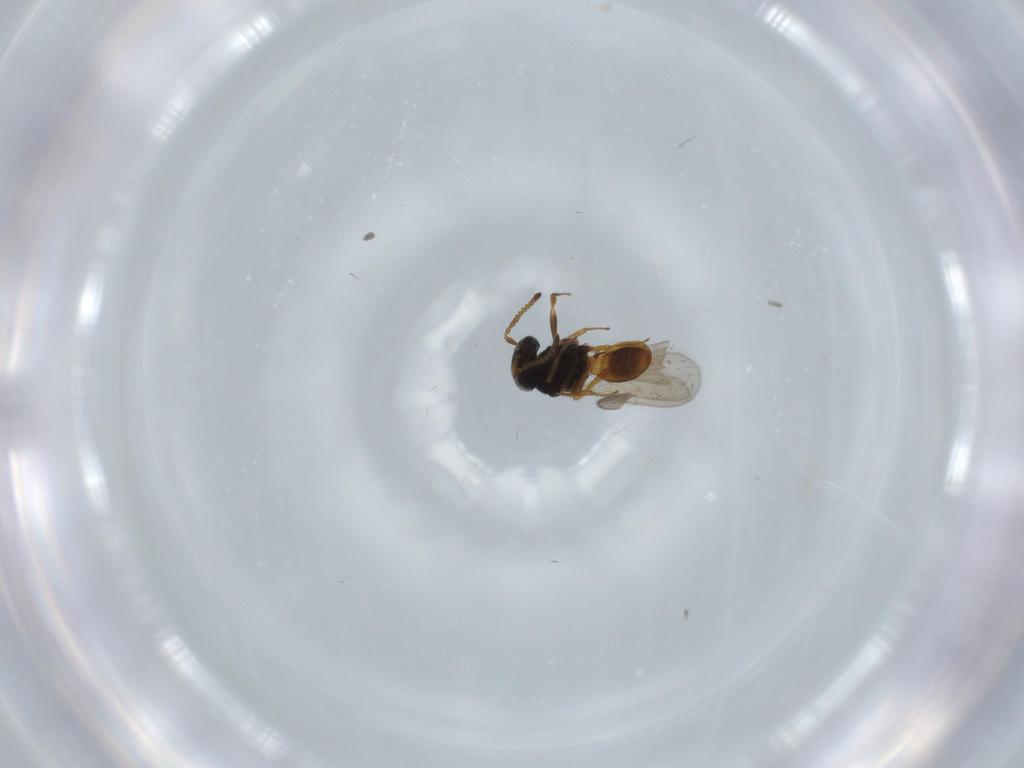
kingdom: Animalia
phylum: Arthropoda
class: Insecta
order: Hymenoptera
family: Scelionidae
